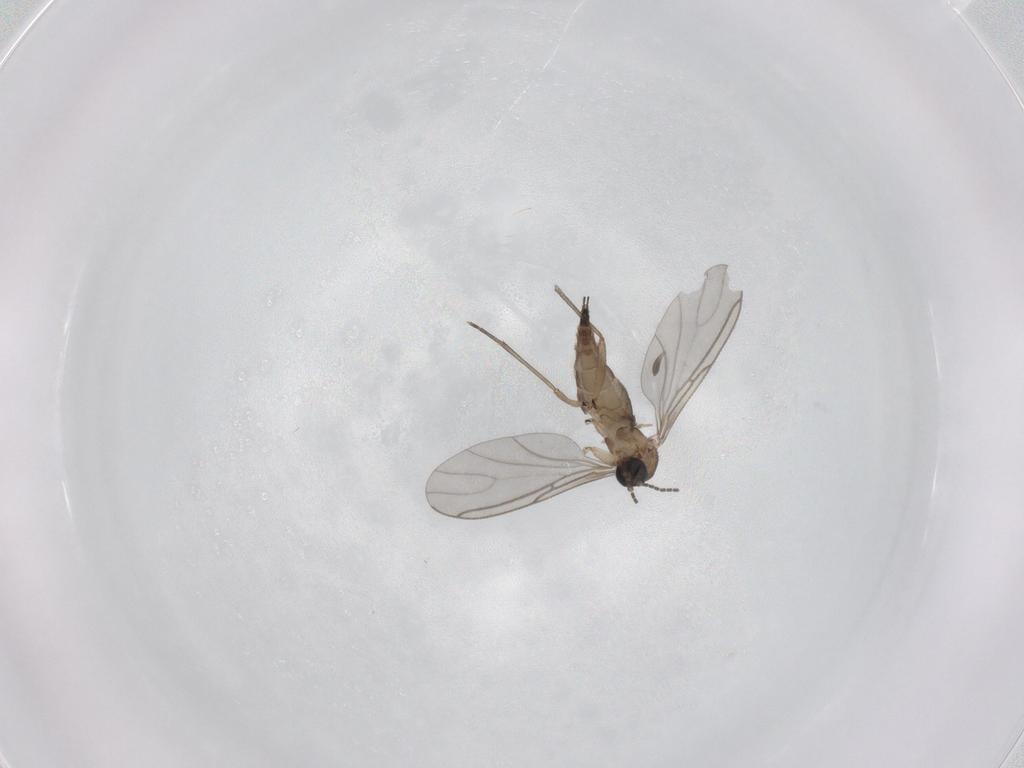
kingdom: Animalia
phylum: Arthropoda
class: Insecta
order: Diptera
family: Sciaridae
